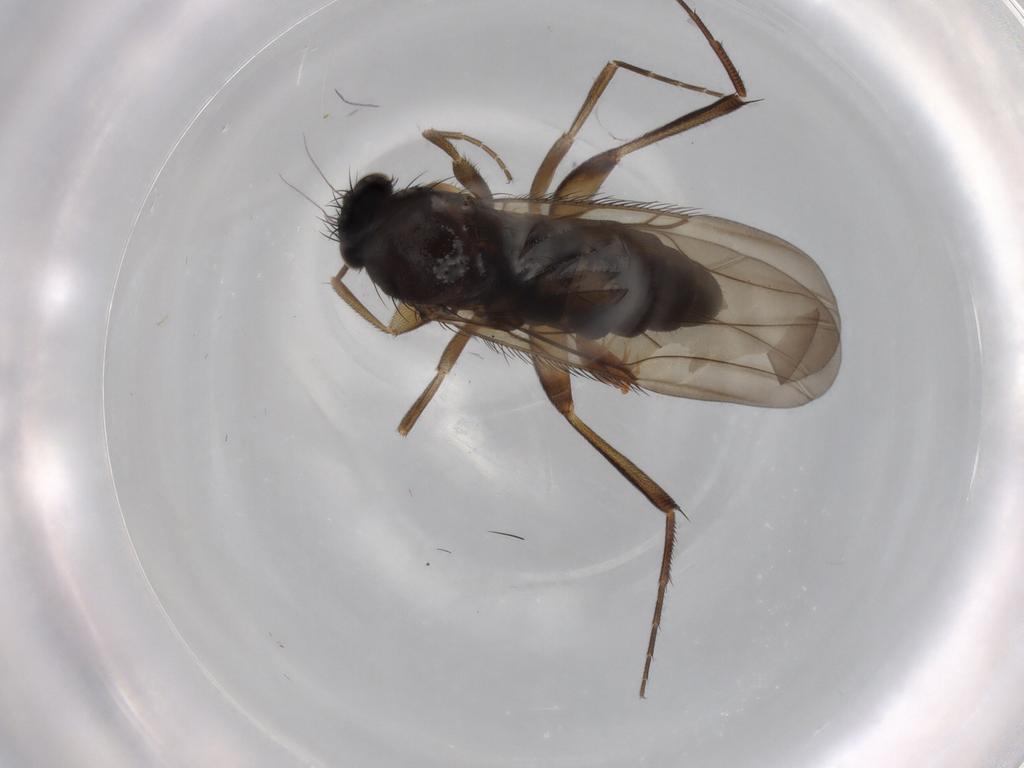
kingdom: Animalia
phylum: Arthropoda
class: Insecta
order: Diptera
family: Phoridae
